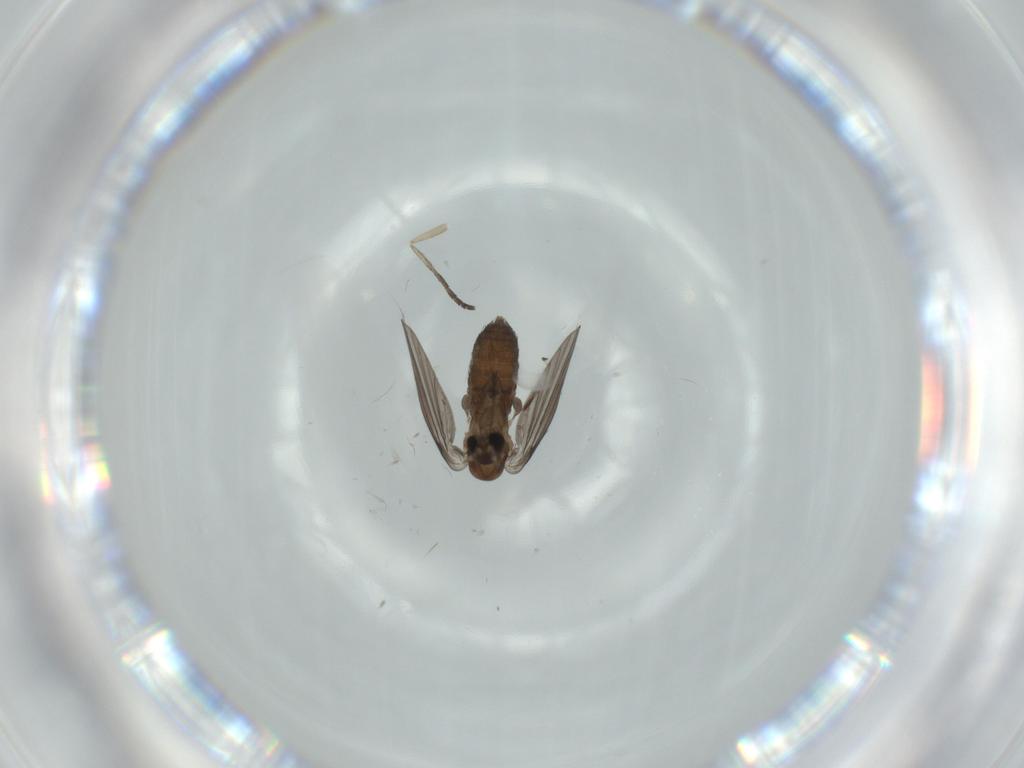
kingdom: Animalia
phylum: Arthropoda
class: Insecta
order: Diptera
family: Psychodidae
